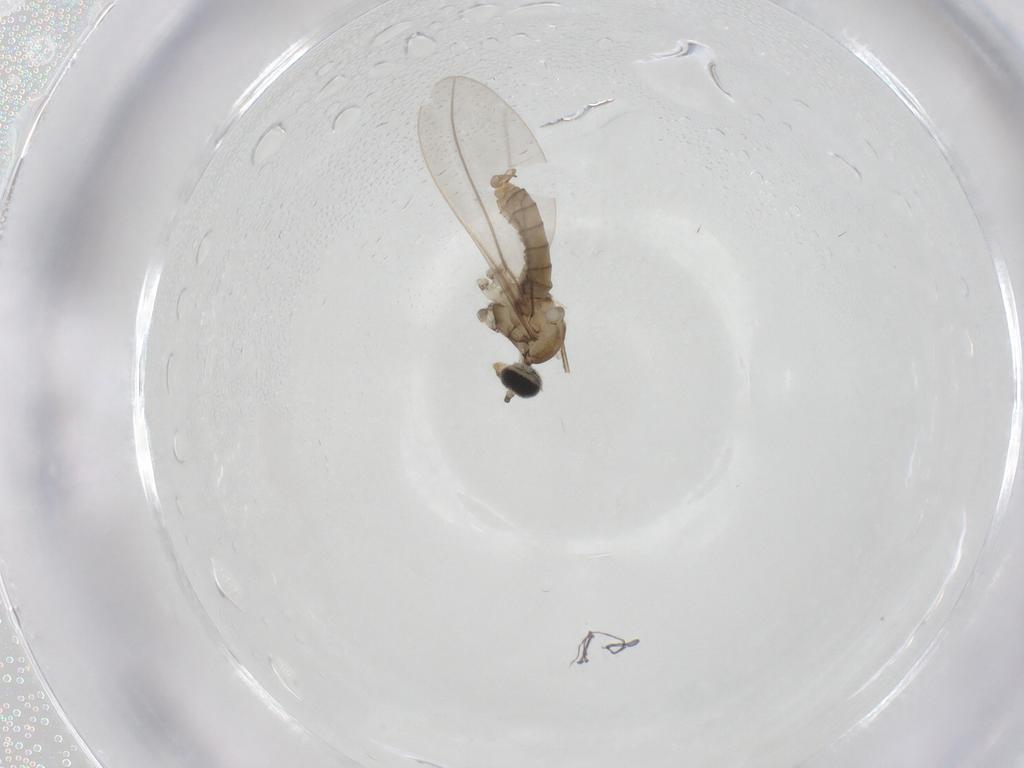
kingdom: Animalia
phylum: Arthropoda
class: Insecta
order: Diptera
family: Cecidomyiidae
